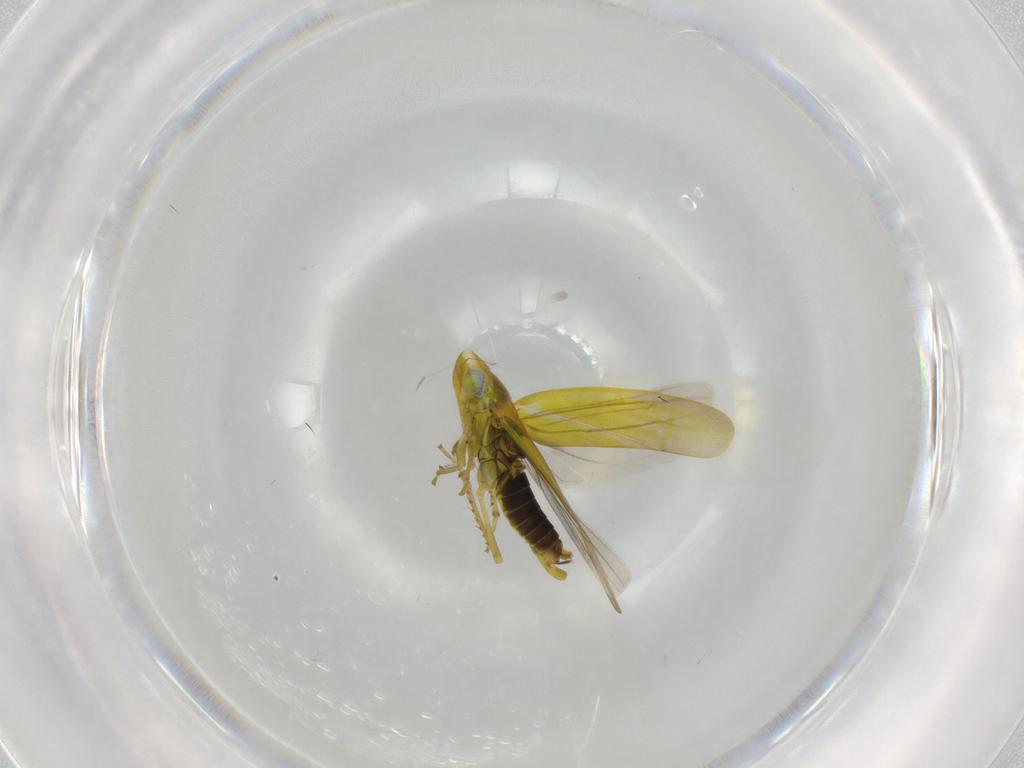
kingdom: Animalia
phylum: Arthropoda
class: Insecta
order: Hemiptera
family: Cicadellidae
